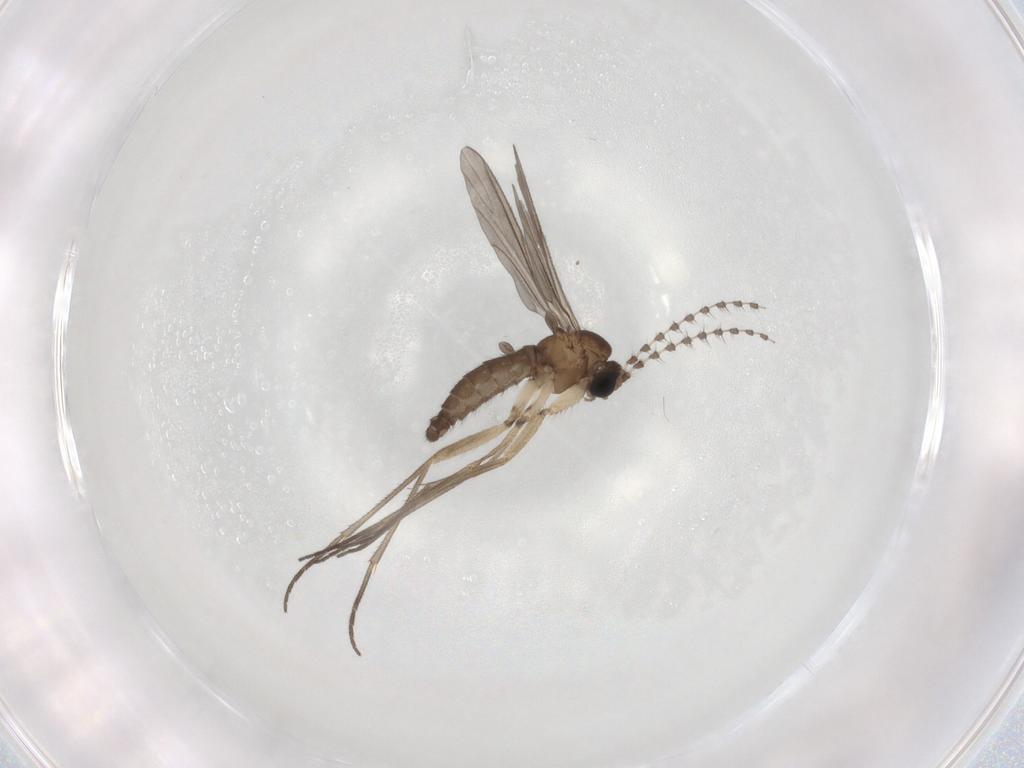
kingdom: Animalia
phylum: Arthropoda
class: Insecta
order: Diptera
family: Sciaridae
